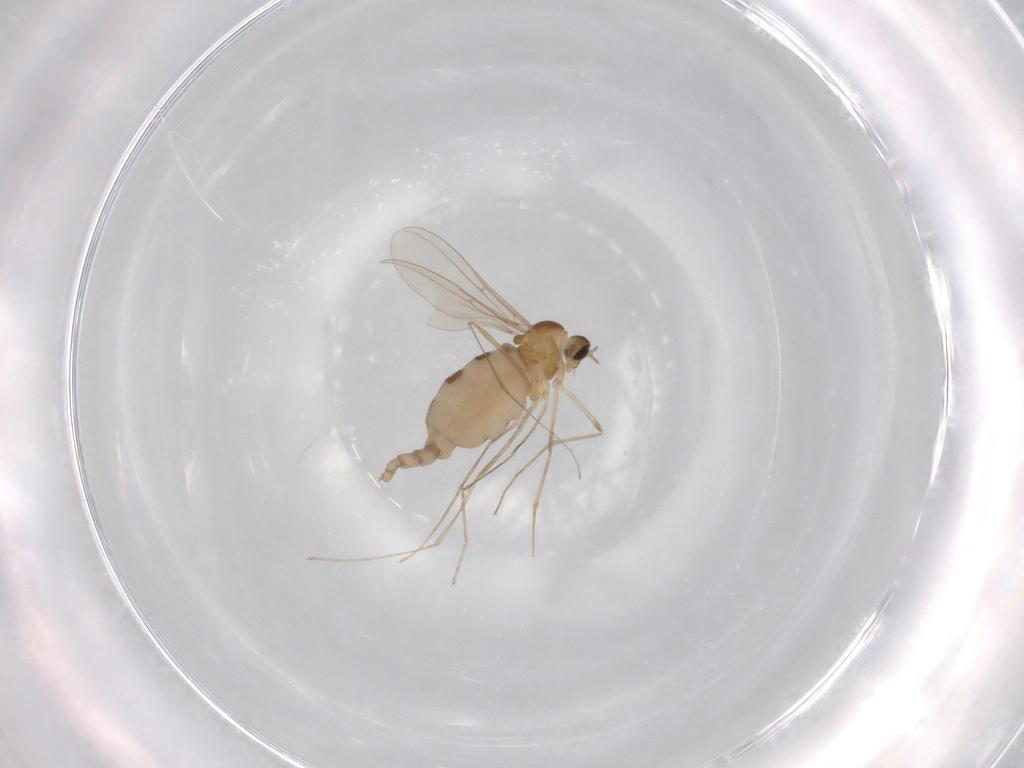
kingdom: Animalia
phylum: Arthropoda
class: Insecta
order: Diptera
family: Cecidomyiidae
